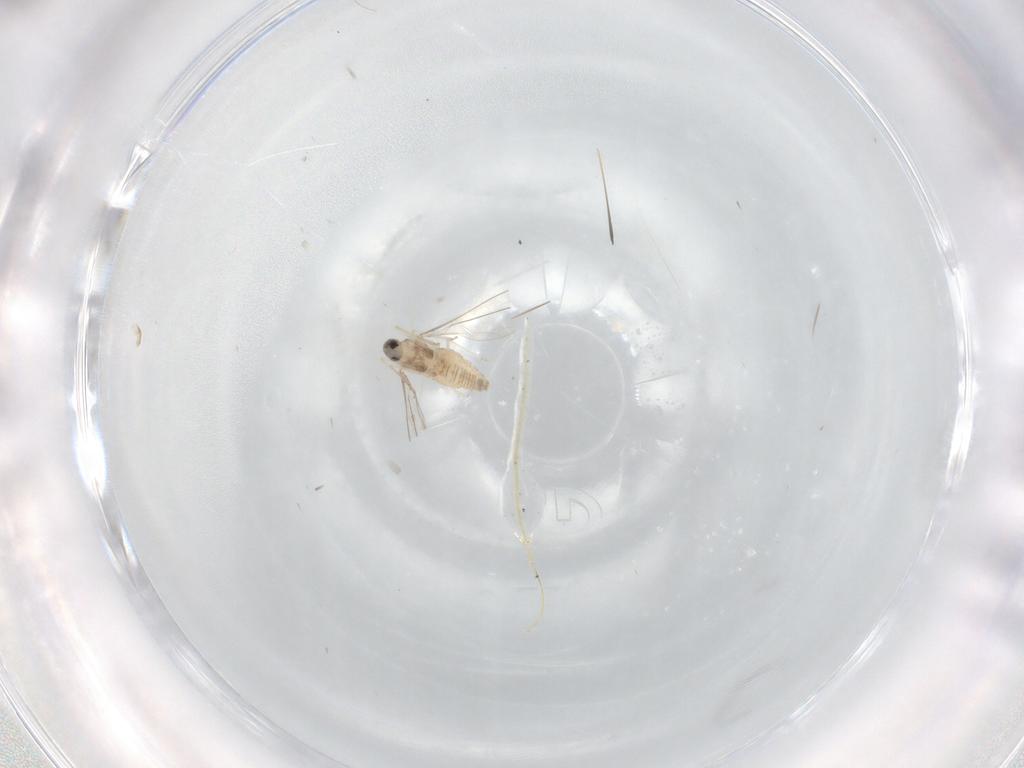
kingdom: Animalia
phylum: Arthropoda
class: Insecta
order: Diptera
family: Cecidomyiidae
